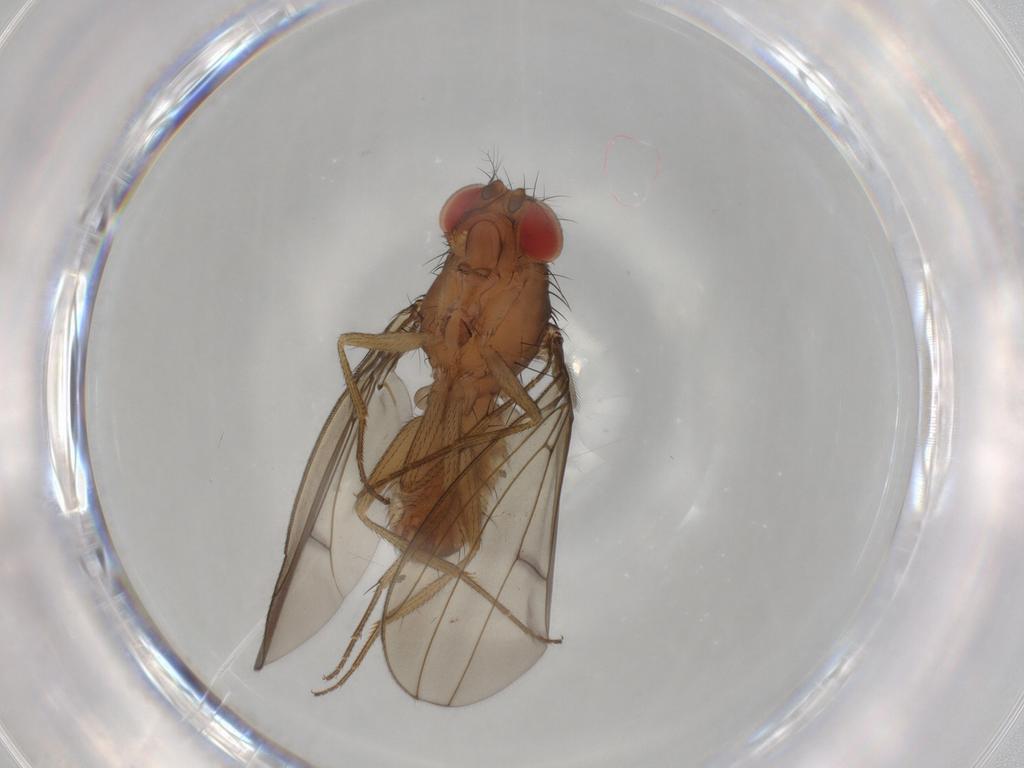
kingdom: Animalia
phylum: Arthropoda
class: Insecta
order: Diptera
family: Drosophilidae
